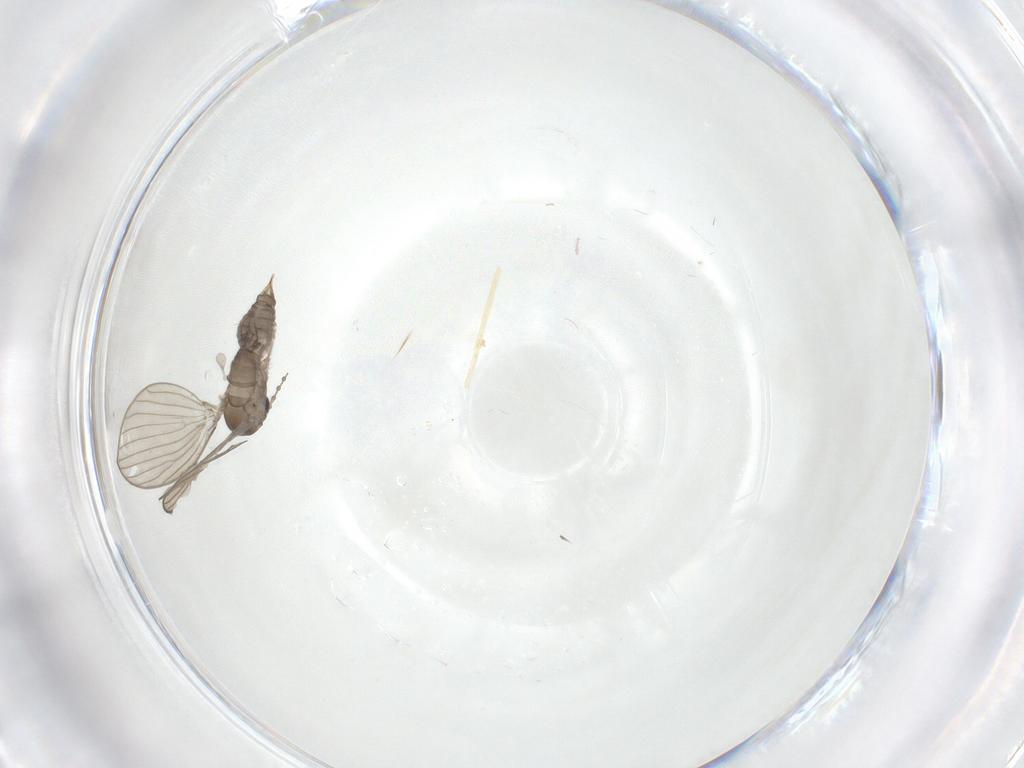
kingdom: Animalia
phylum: Arthropoda
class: Insecta
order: Diptera
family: Psychodidae
